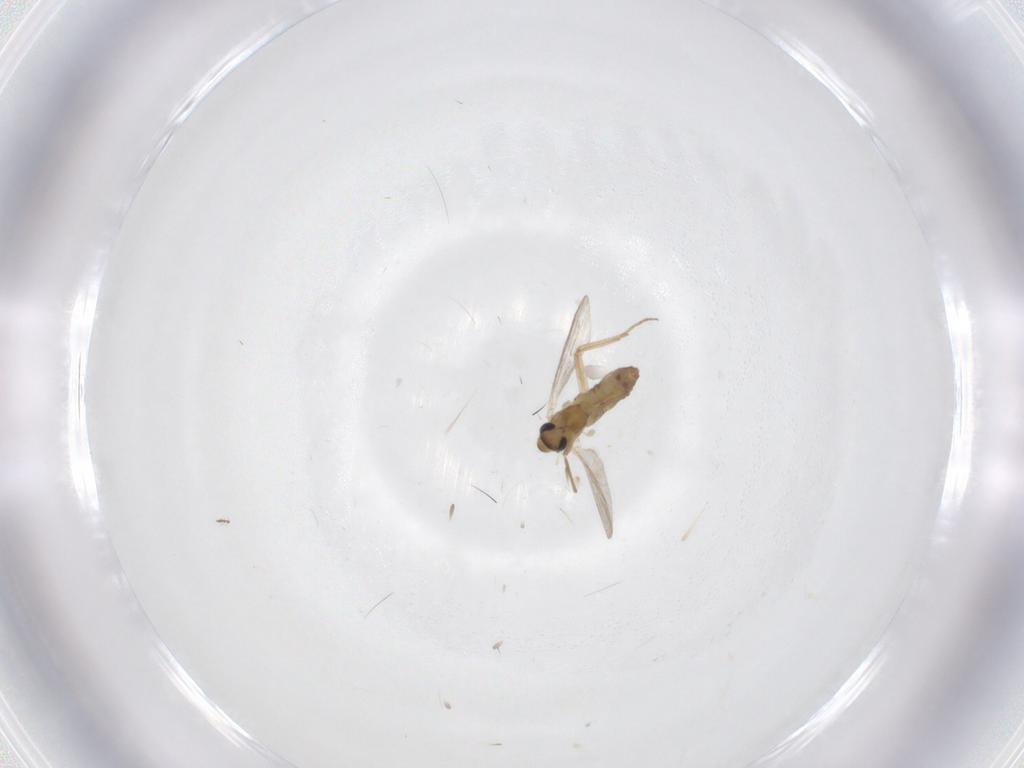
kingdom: Animalia
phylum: Arthropoda
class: Insecta
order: Diptera
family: Chironomidae
